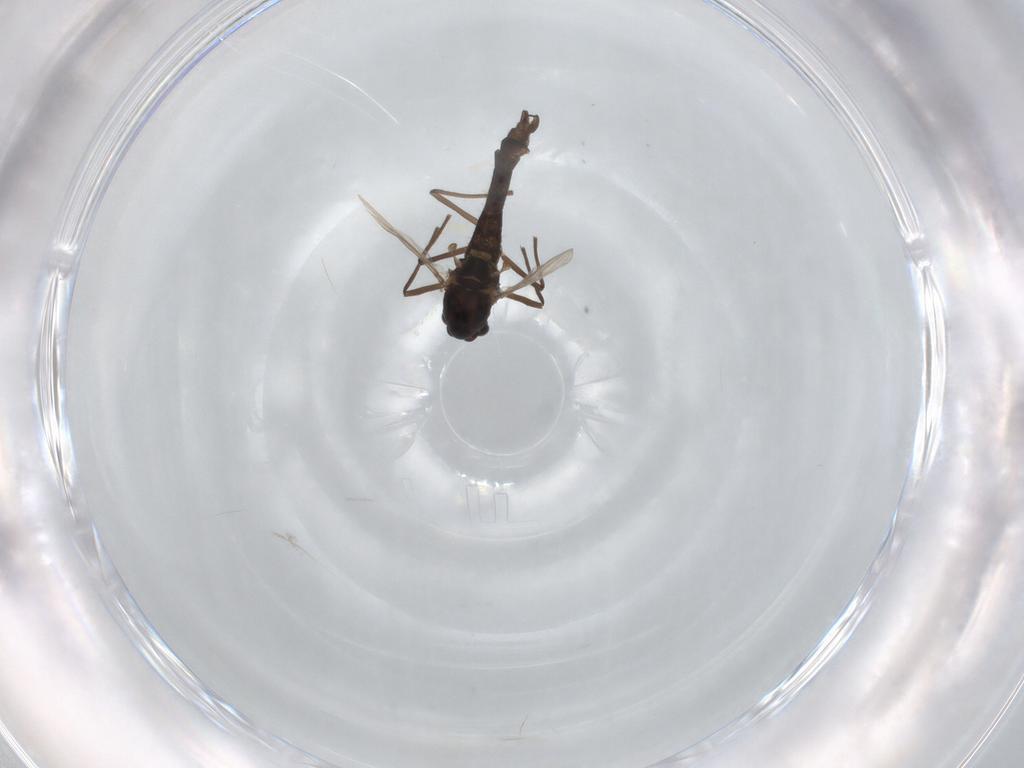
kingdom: Animalia
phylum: Arthropoda
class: Insecta
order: Diptera
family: Chironomidae
